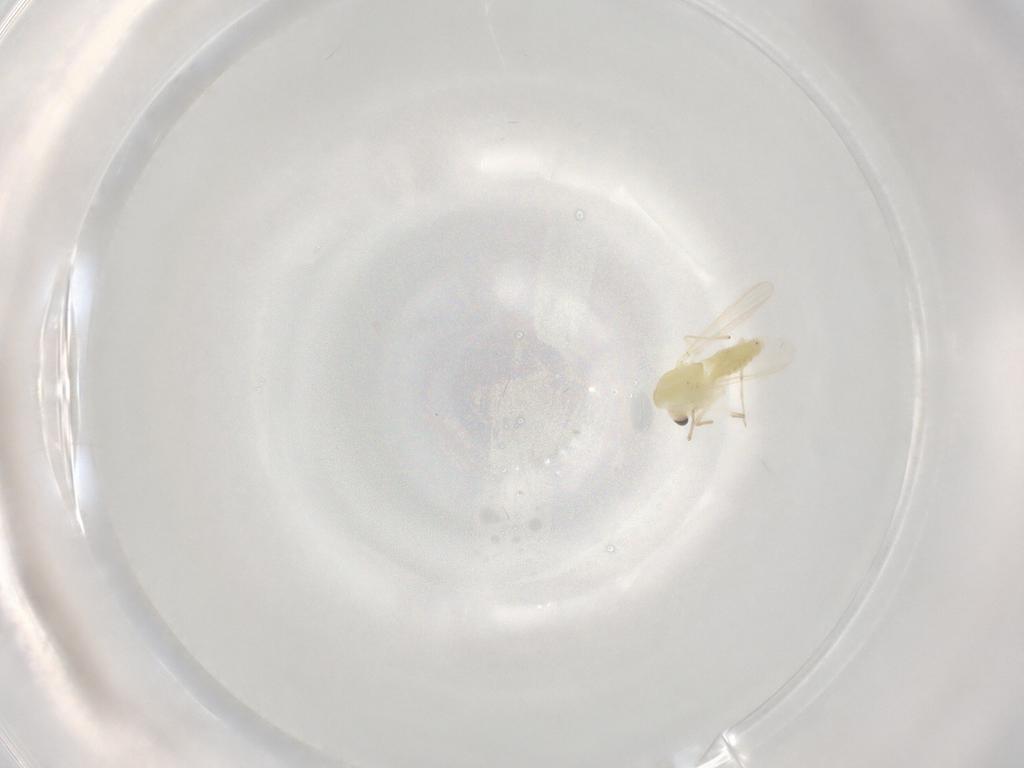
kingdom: Animalia
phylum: Arthropoda
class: Insecta
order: Diptera
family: Chironomidae
